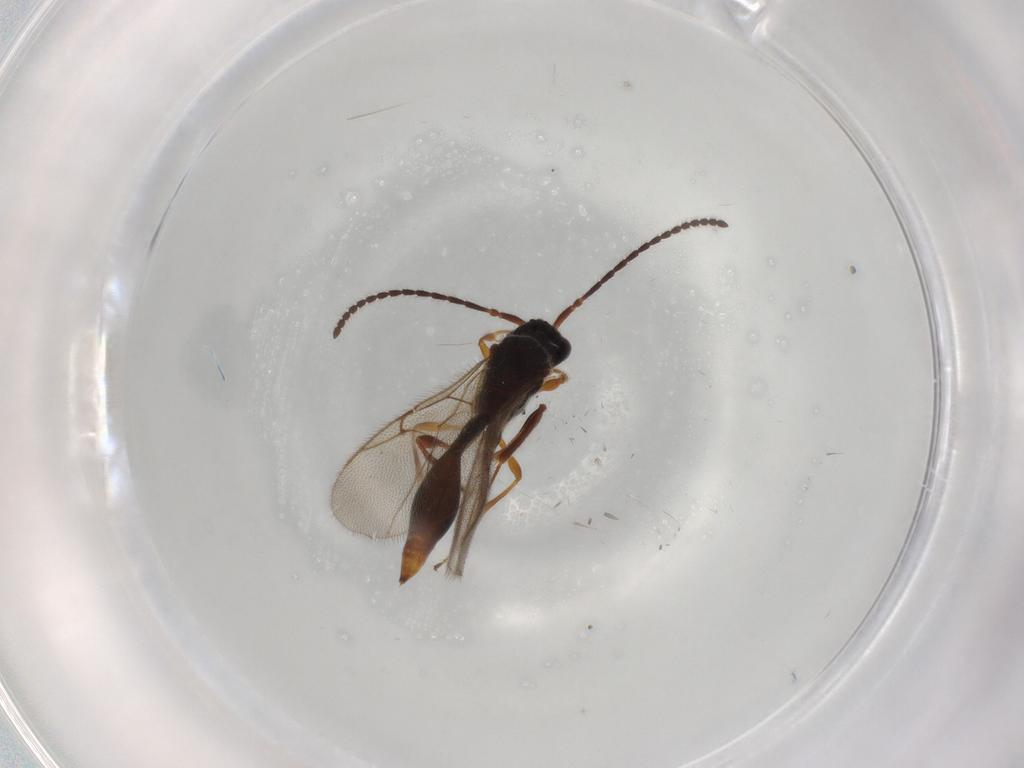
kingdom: Animalia
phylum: Arthropoda
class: Insecta
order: Hymenoptera
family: Diapriidae
